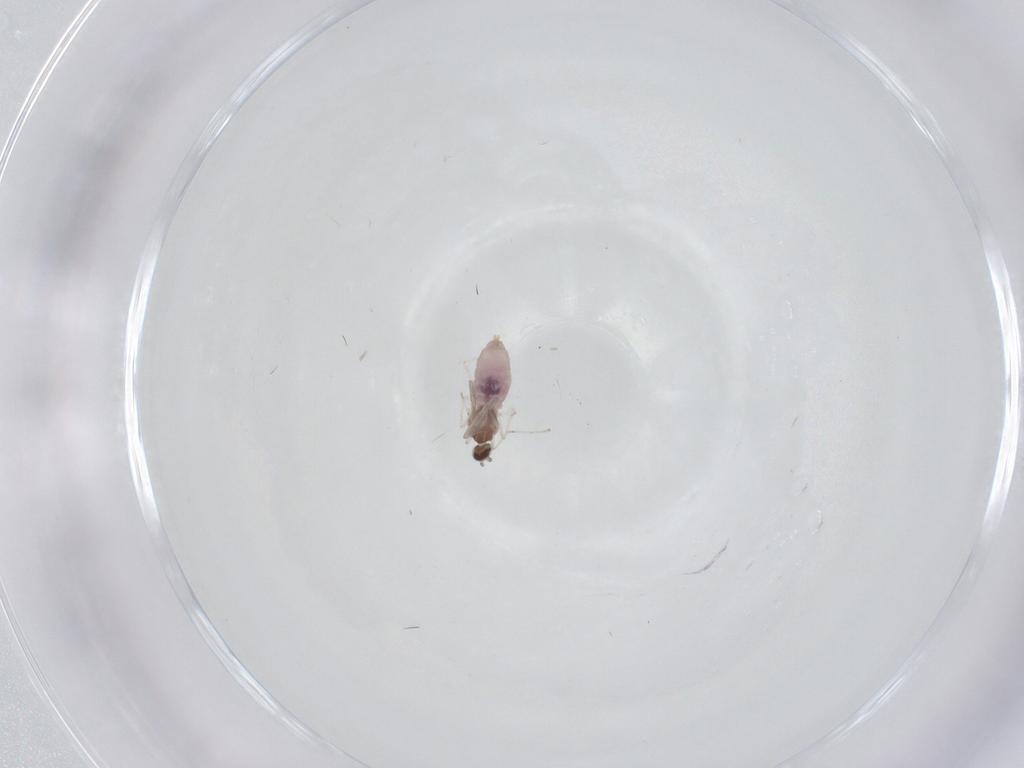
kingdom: Animalia
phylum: Arthropoda
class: Insecta
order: Diptera
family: Cecidomyiidae
